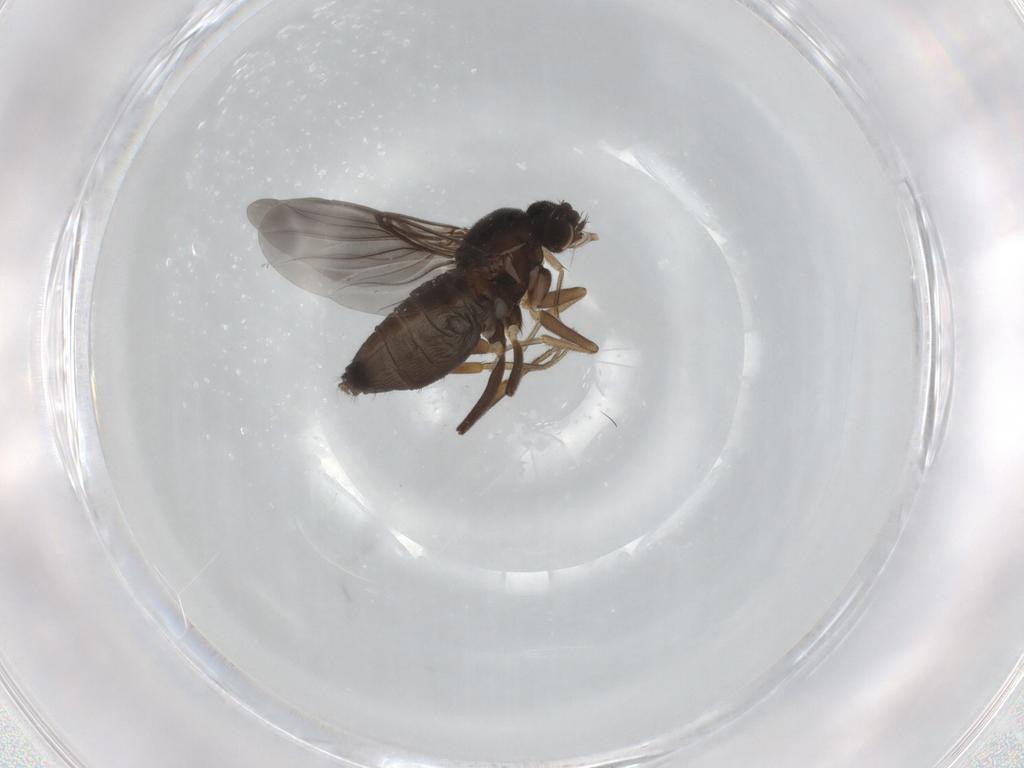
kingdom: Animalia
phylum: Arthropoda
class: Insecta
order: Diptera
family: Phoridae
